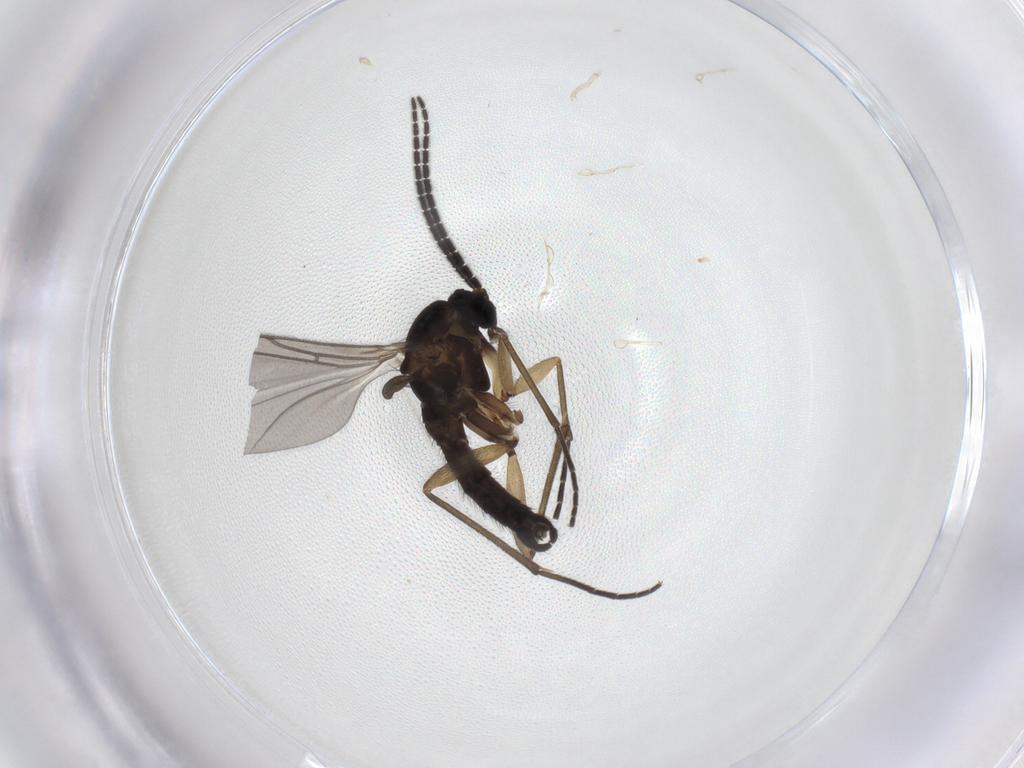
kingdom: Animalia
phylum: Arthropoda
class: Insecta
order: Diptera
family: Sciaridae
